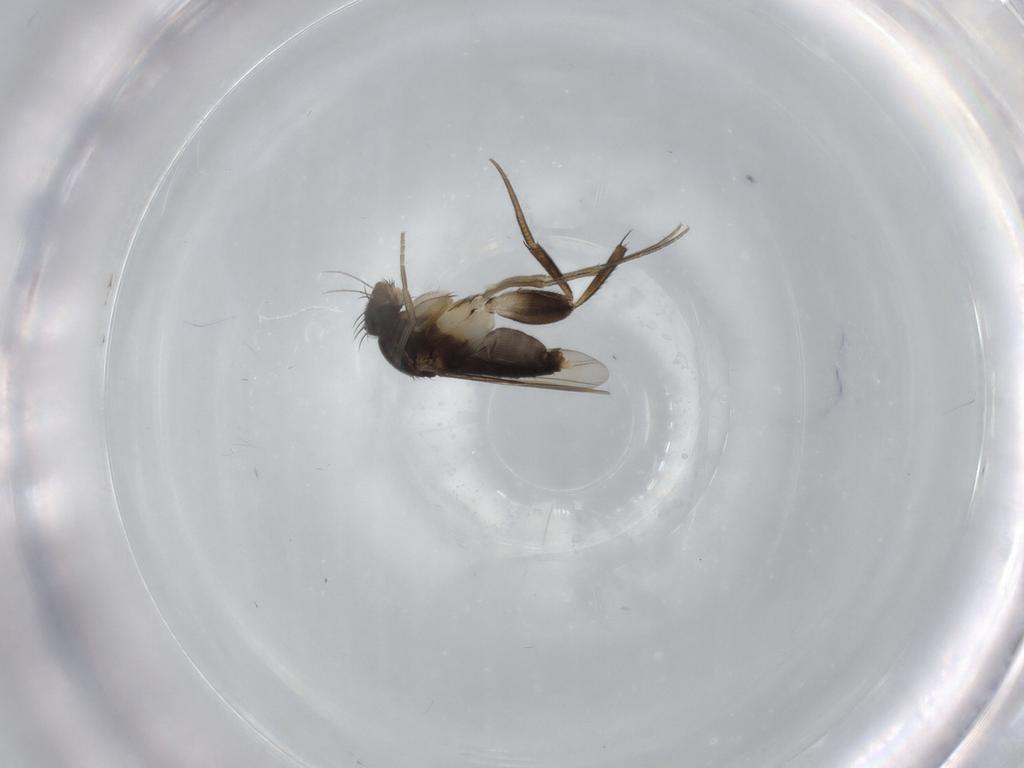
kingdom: Animalia
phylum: Arthropoda
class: Insecta
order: Diptera
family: Phoridae
